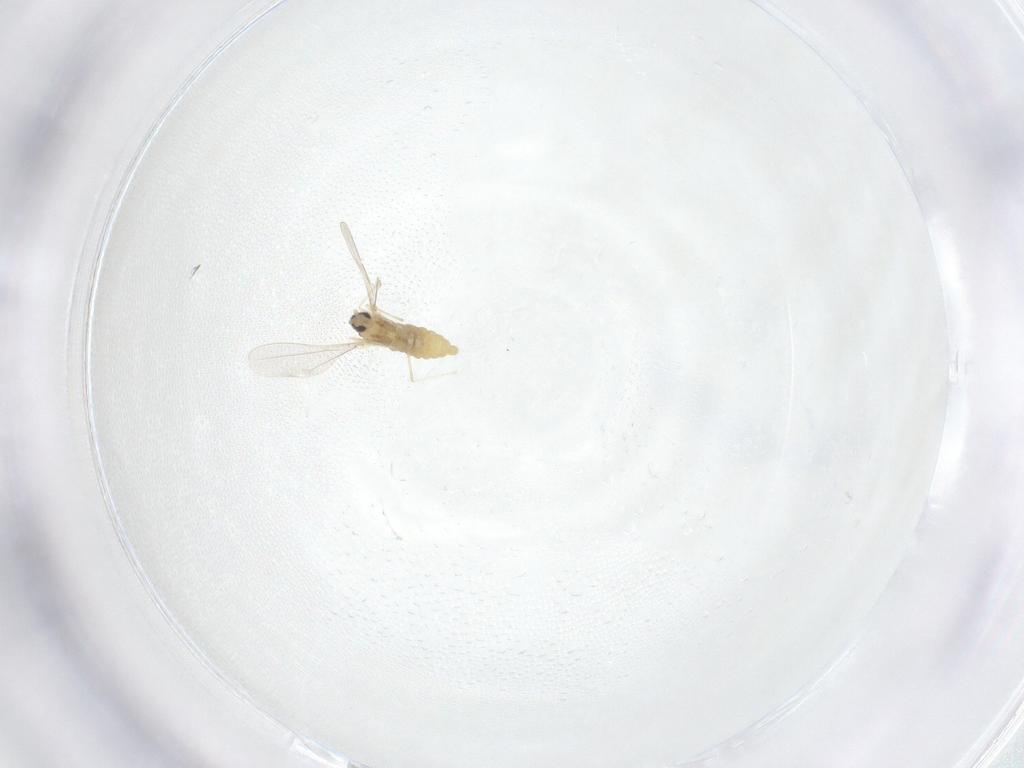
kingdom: Animalia
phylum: Arthropoda
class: Insecta
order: Diptera
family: Cecidomyiidae
